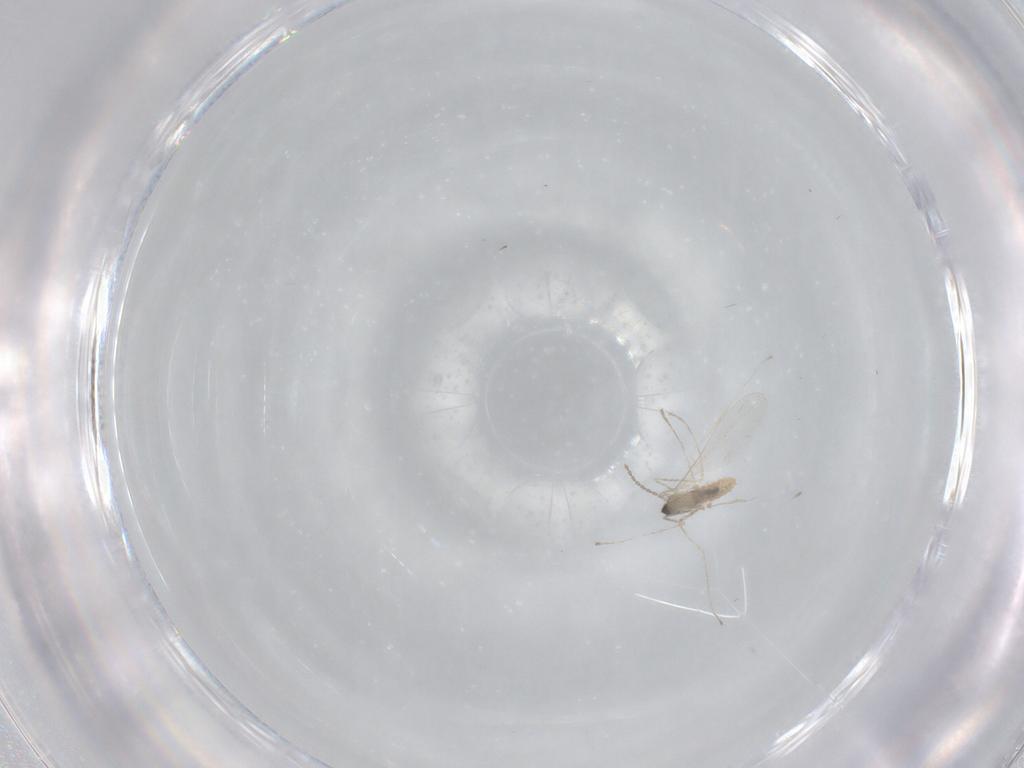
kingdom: Animalia
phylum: Arthropoda
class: Insecta
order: Diptera
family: Cecidomyiidae
